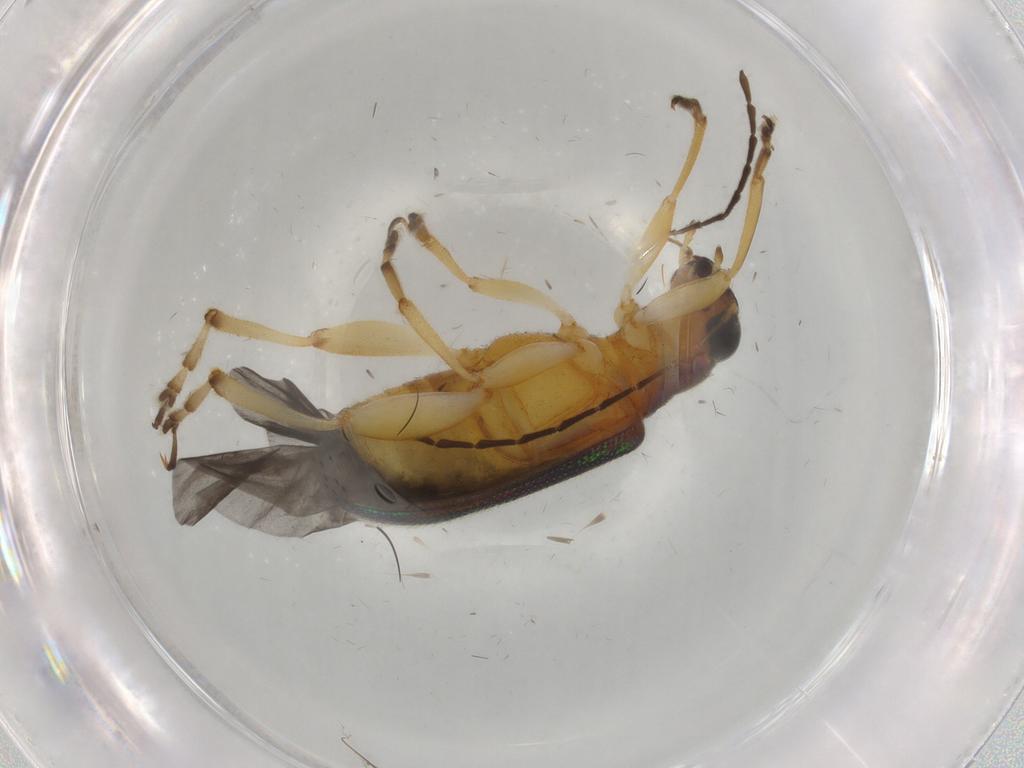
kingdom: Animalia
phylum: Arthropoda
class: Insecta
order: Coleoptera
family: Chrysomelidae
